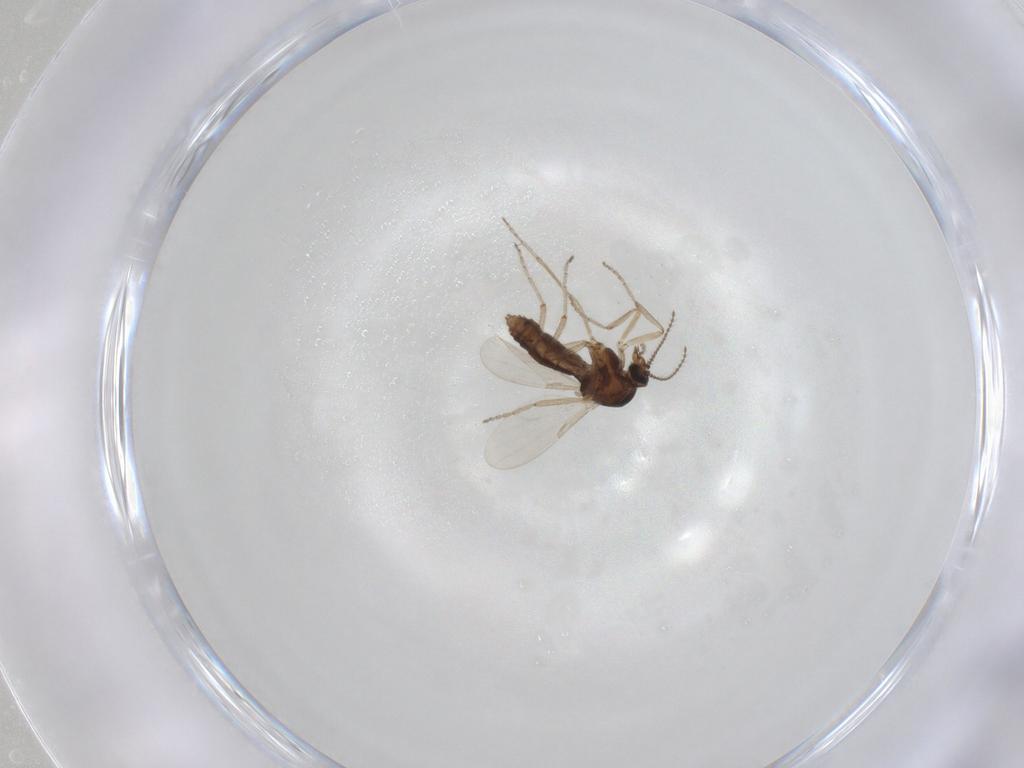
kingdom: Animalia
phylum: Arthropoda
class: Insecta
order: Diptera
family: Ceratopogonidae
